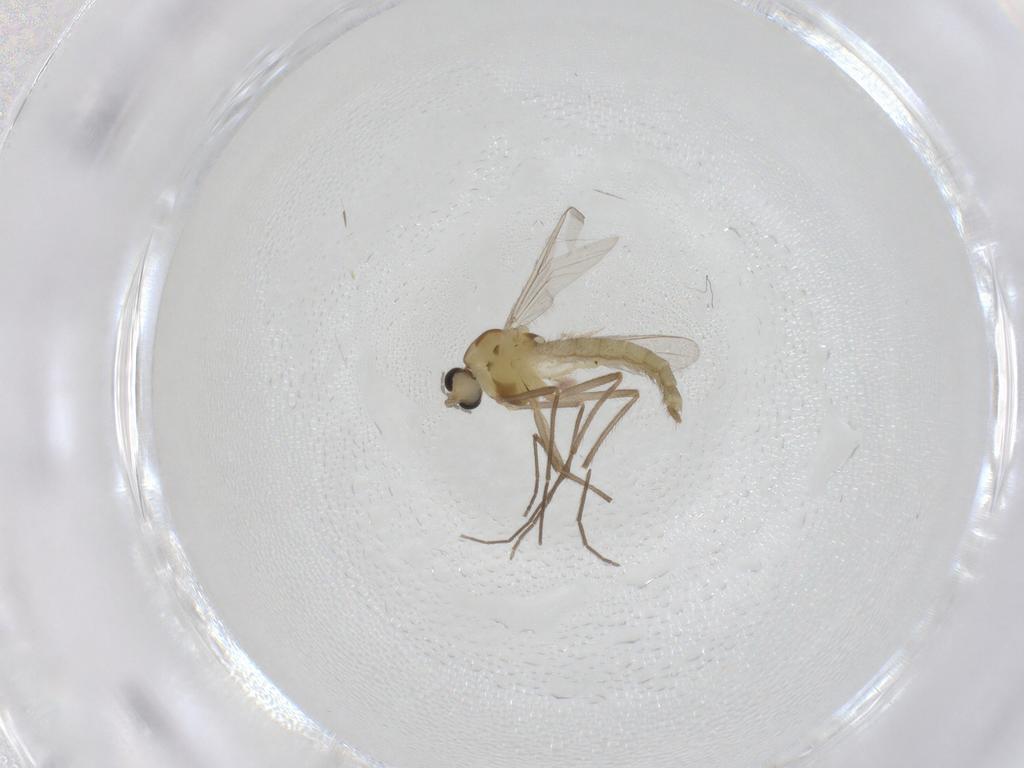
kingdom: Animalia
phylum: Arthropoda
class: Insecta
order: Diptera
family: Chironomidae
